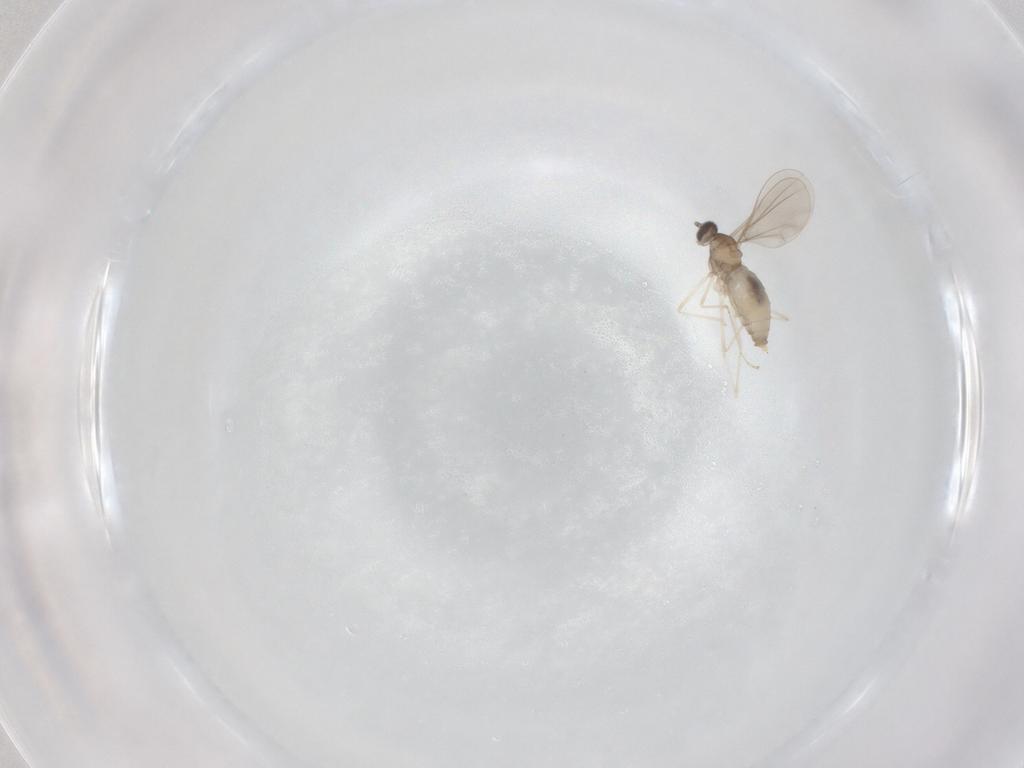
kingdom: Animalia
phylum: Arthropoda
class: Insecta
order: Diptera
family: Cecidomyiidae
